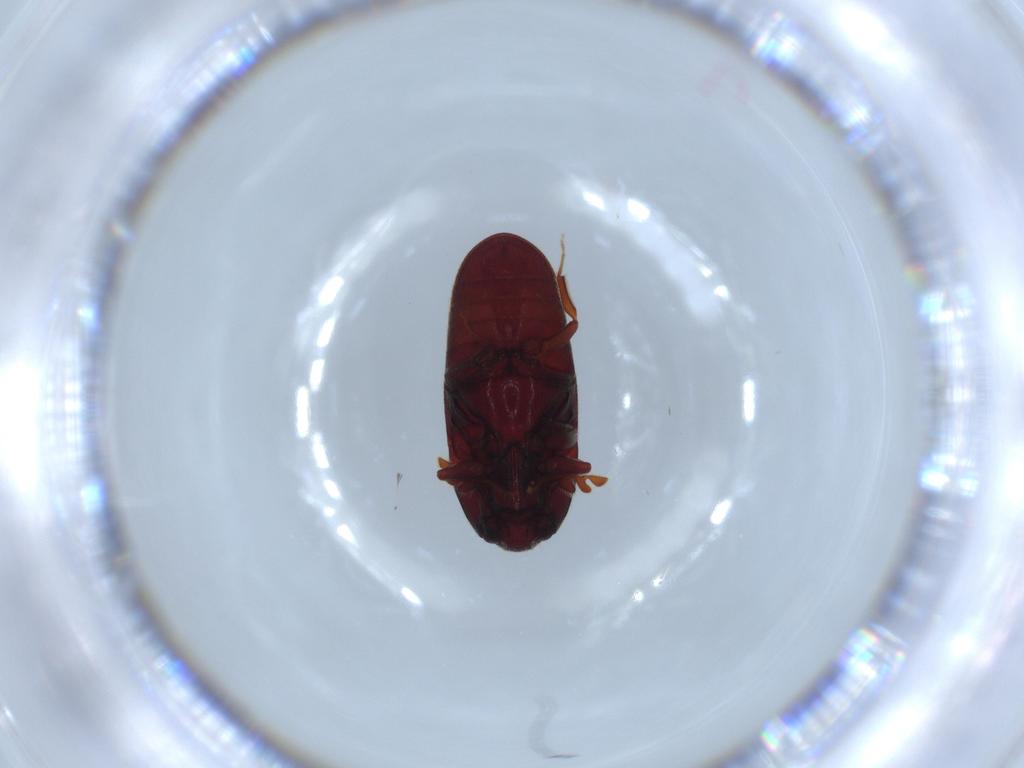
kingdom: Animalia
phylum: Arthropoda
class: Insecta
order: Coleoptera
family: Throscidae
